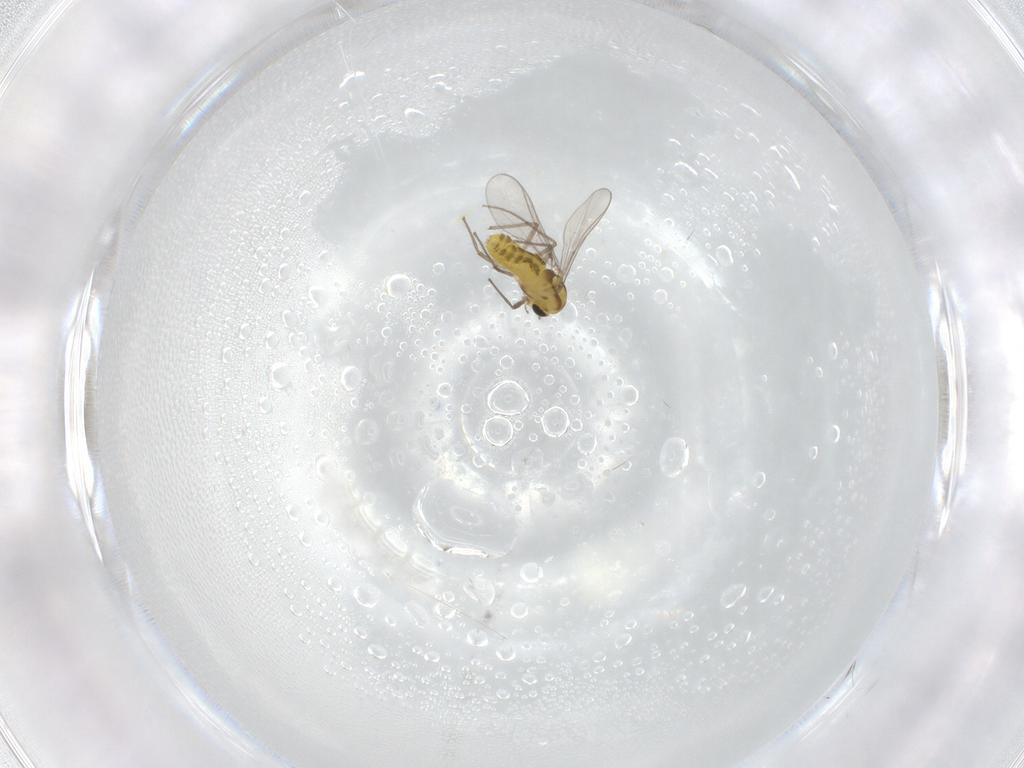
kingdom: Animalia
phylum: Arthropoda
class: Insecta
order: Diptera
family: Chironomidae
